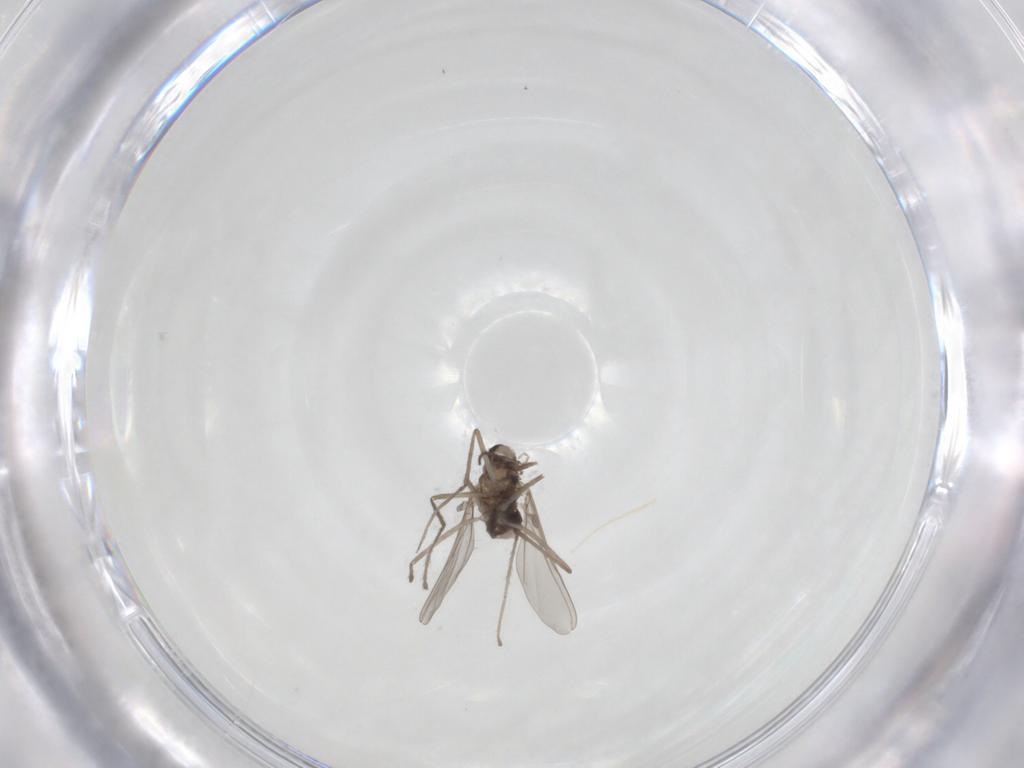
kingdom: Animalia
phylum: Arthropoda
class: Insecta
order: Diptera
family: Cecidomyiidae
